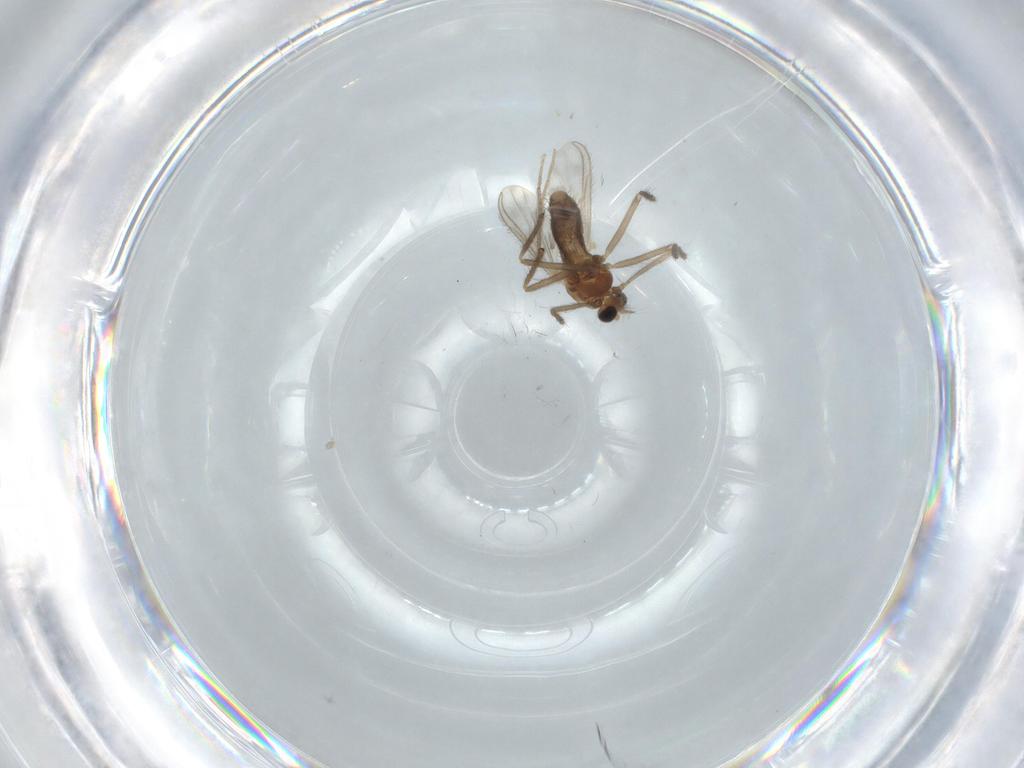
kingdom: Animalia
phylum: Arthropoda
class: Insecta
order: Diptera
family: Chironomidae
